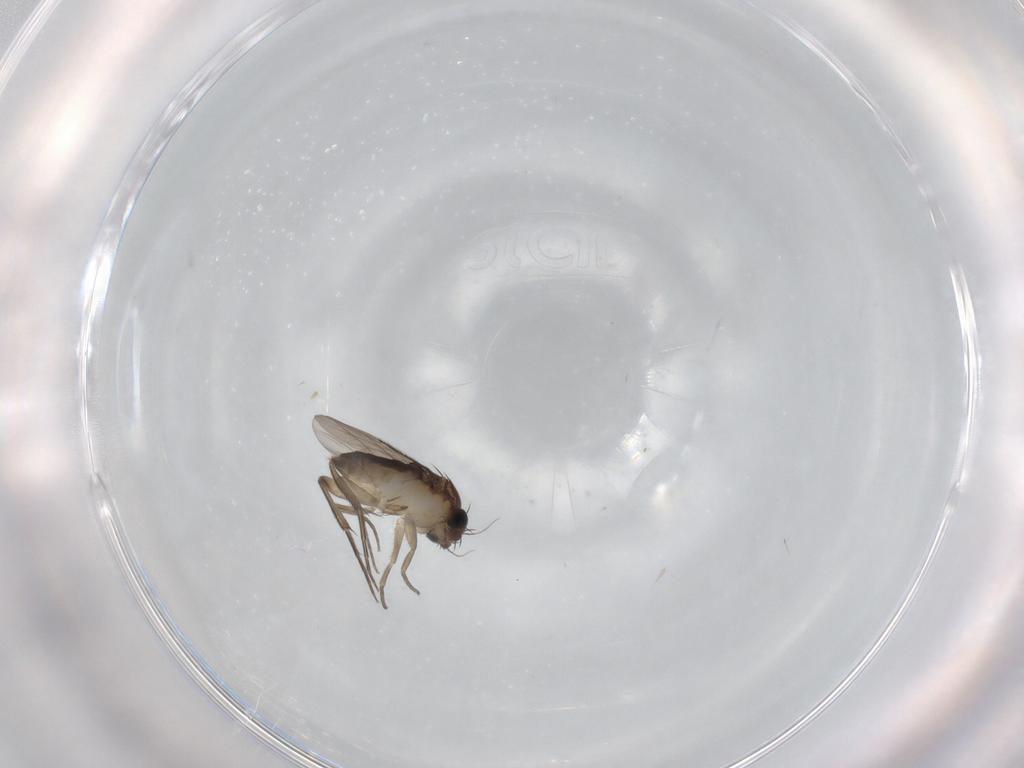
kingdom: Animalia
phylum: Arthropoda
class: Insecta
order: Diptera
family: Phoridae
